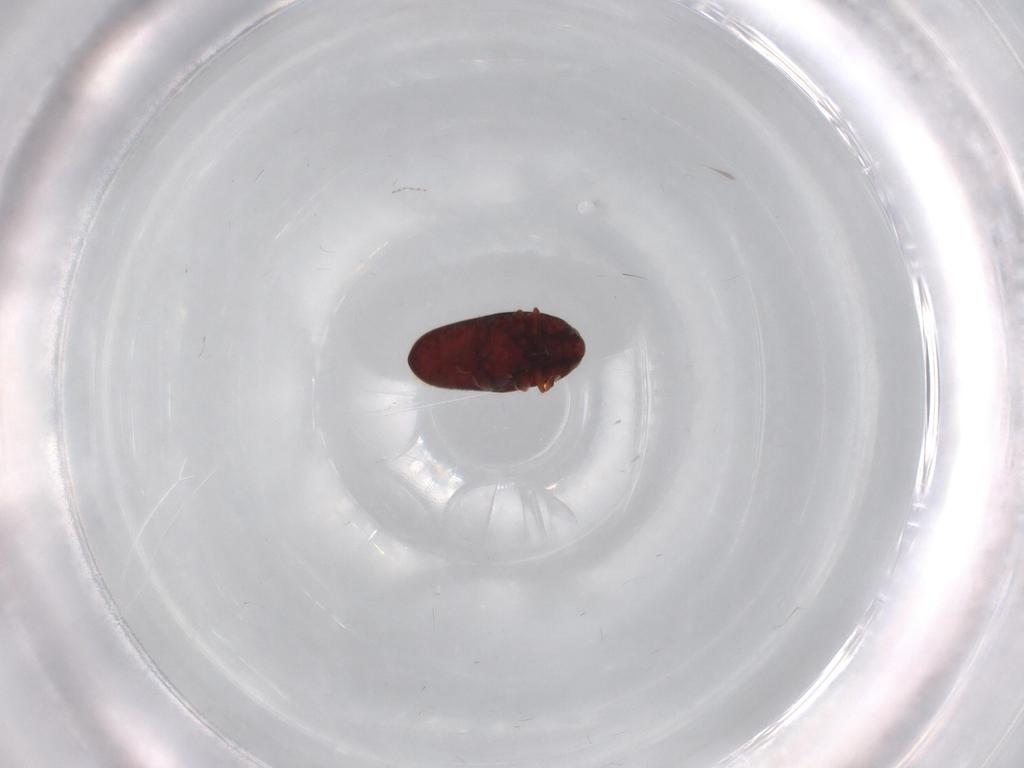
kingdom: Animalia
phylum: Arthropoda
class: Insecta
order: Coleoptera
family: Throscidae
